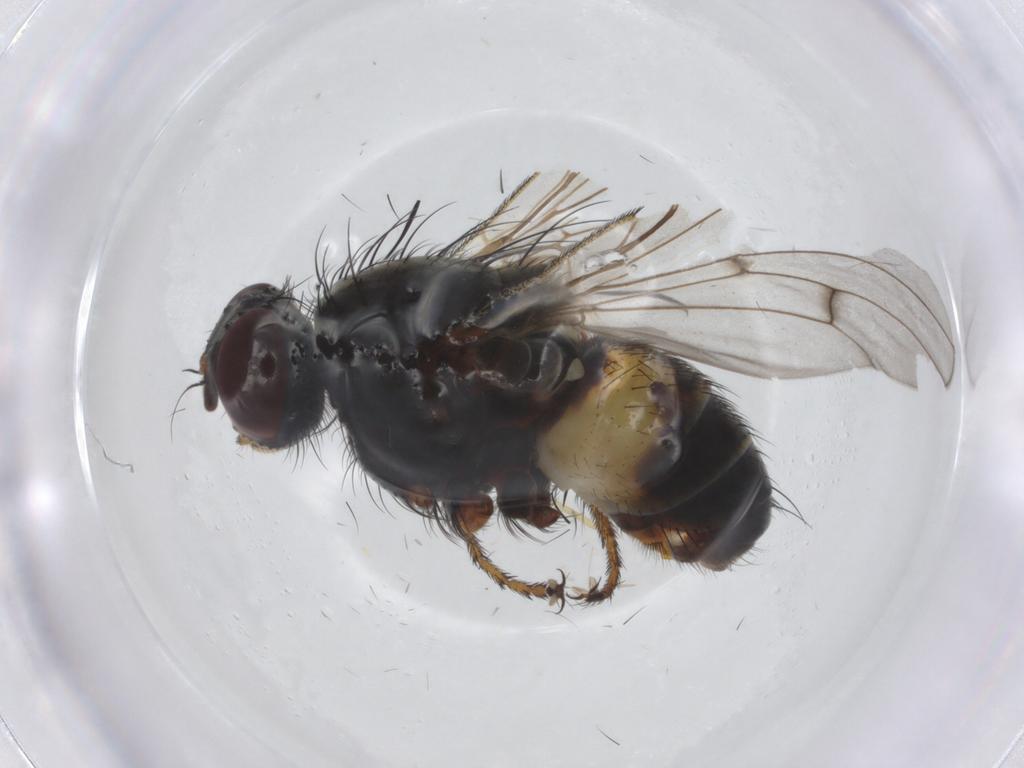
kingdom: Animalia
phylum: Arthropoda
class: Insecta
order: Diptera
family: Muscidae
